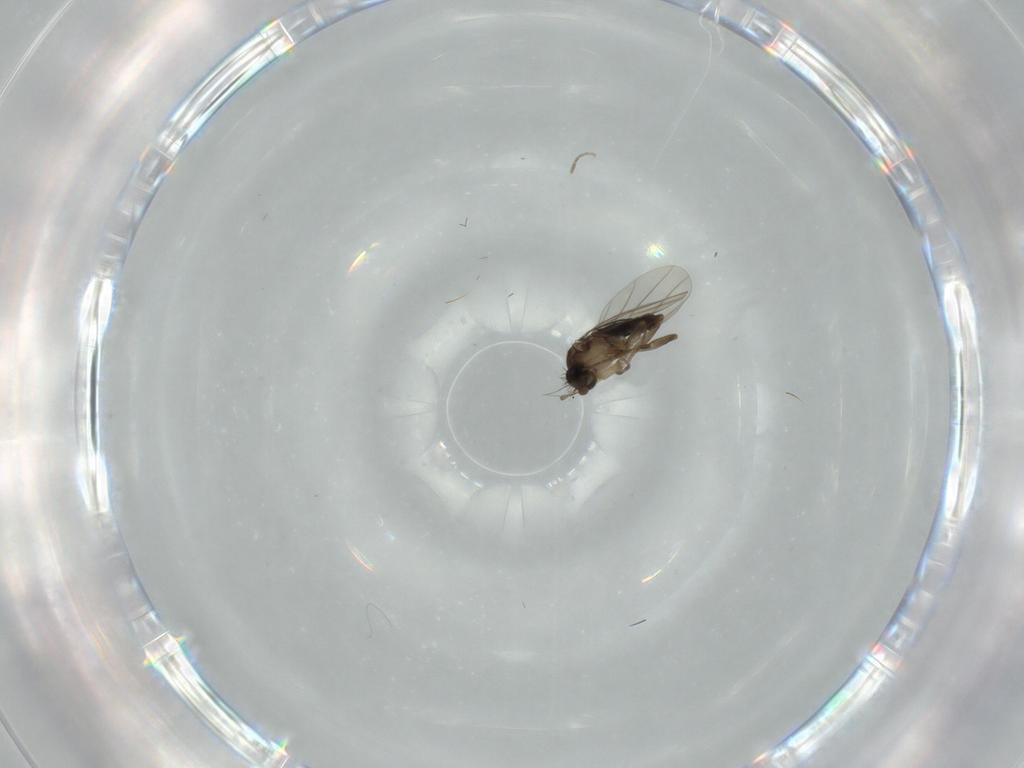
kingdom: Animalia
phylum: Arthropoda
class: Insecta
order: Diptera
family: Phoridae
